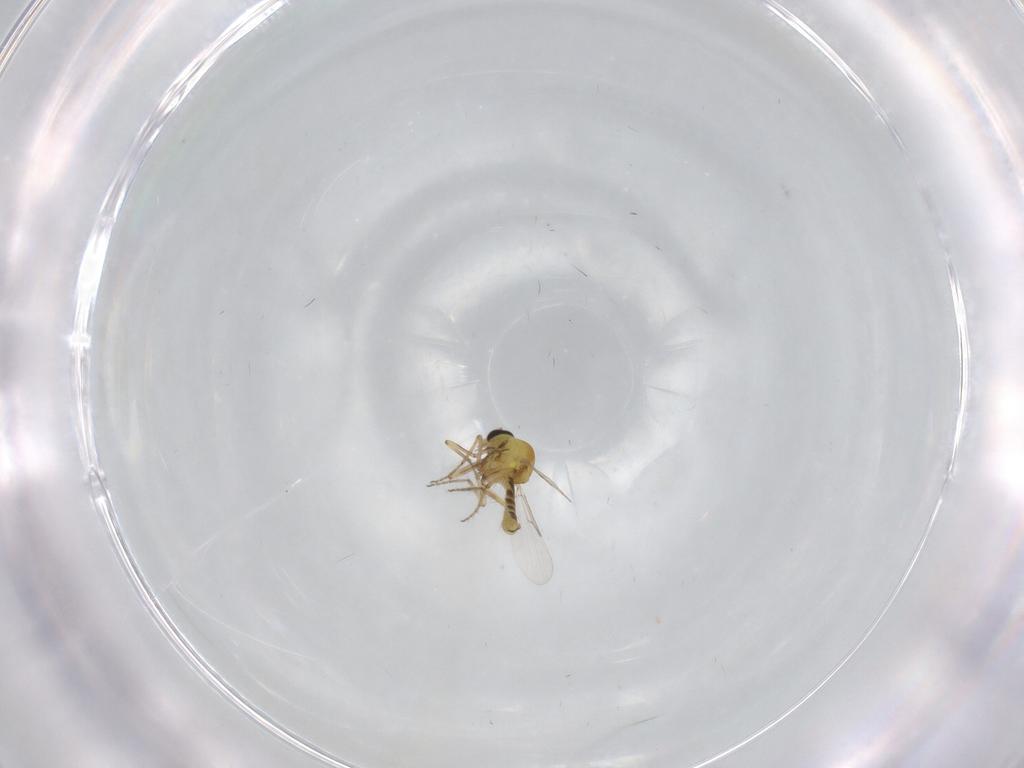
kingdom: Animalia
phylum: Arthropoda
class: Insecta
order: Diptera
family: Ceratopogonidae
